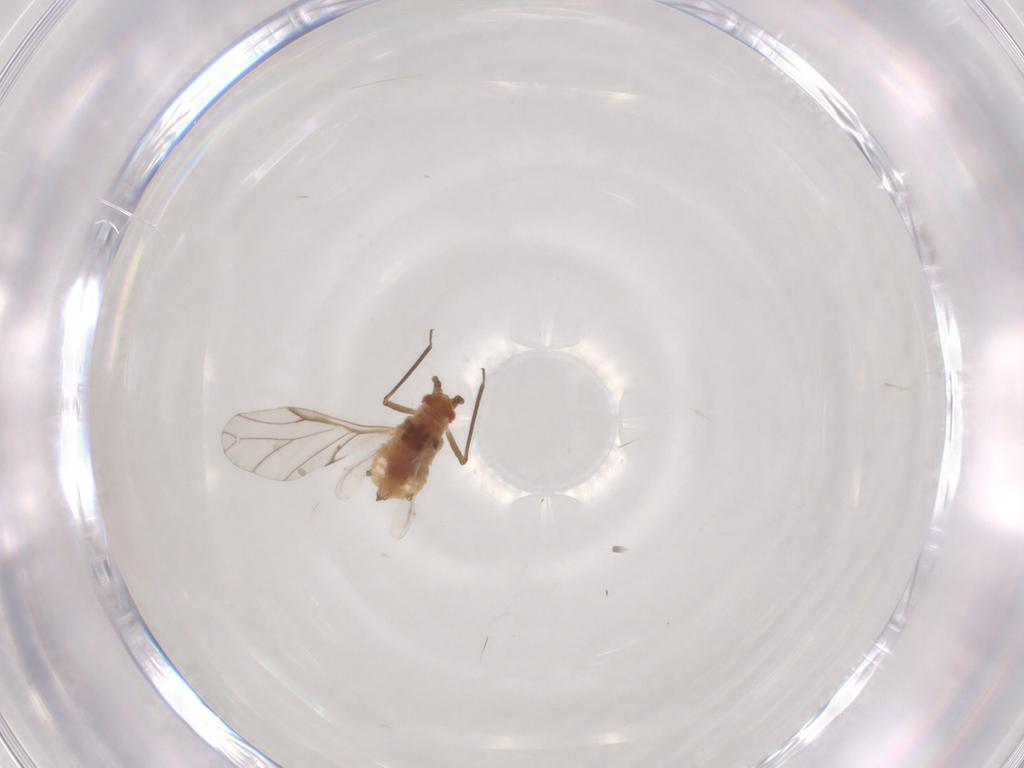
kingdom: Animalia
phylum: Arthropoda
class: Insecta
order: Hemiptera
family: Aphididae
